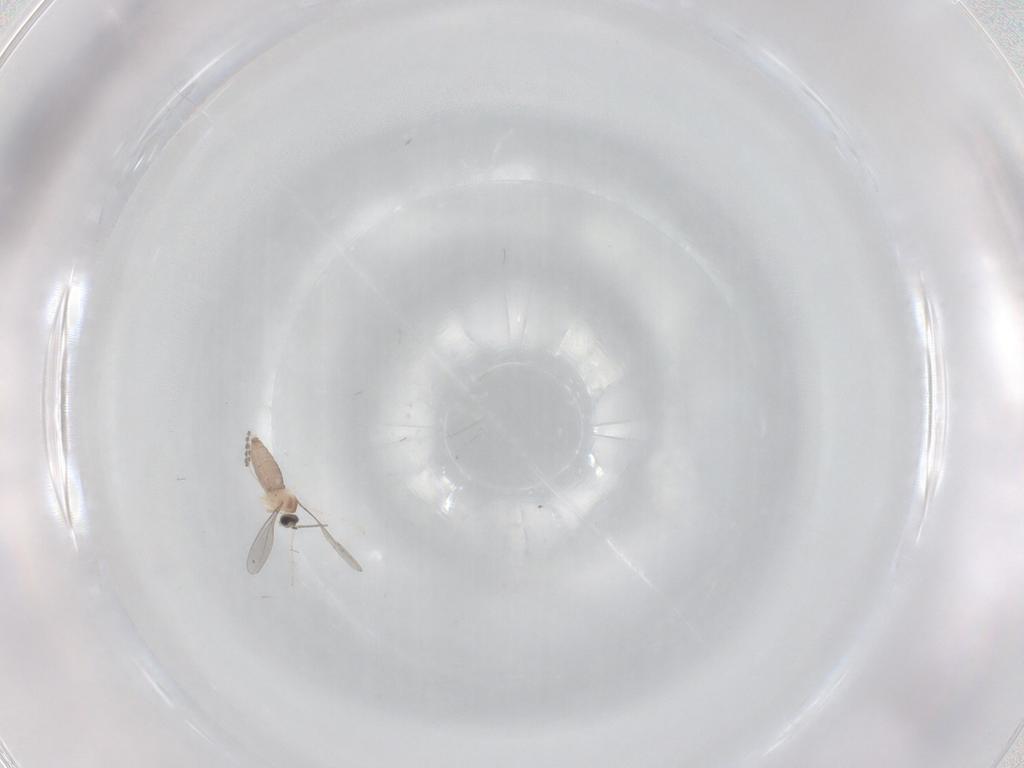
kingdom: Animalia
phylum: Arthropoda
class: Insecta
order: Diptera
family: Cecidomyiidae
